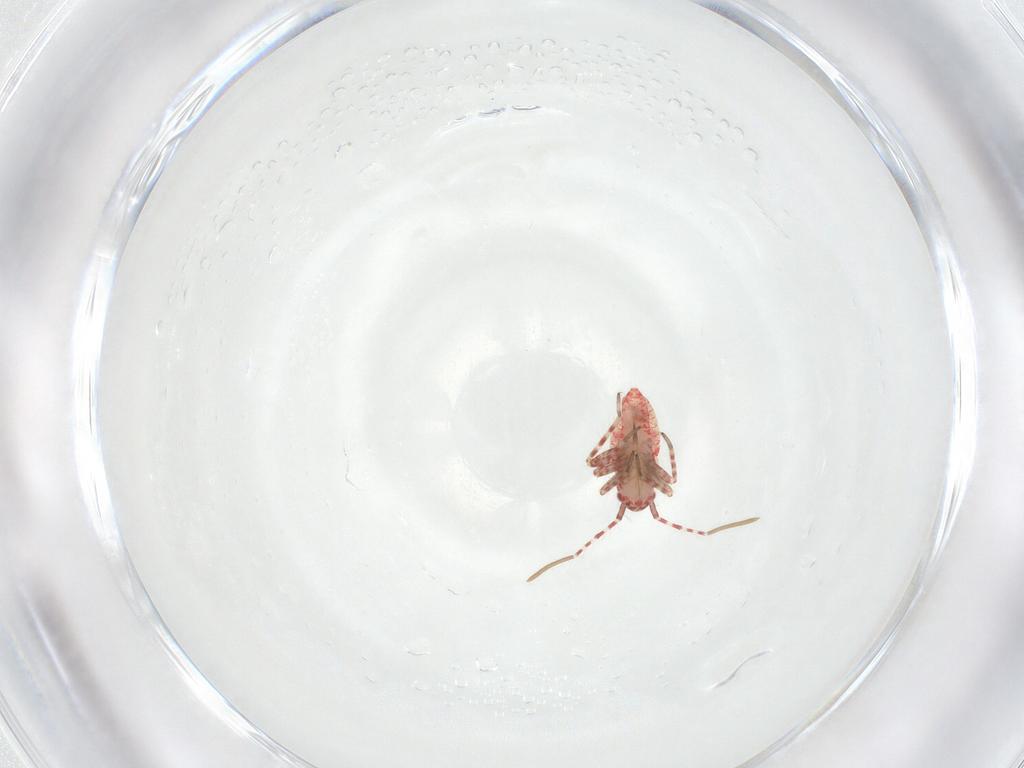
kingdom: Animalia
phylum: Arthropoda
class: Insecta
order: Hemiptera
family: Miridae
